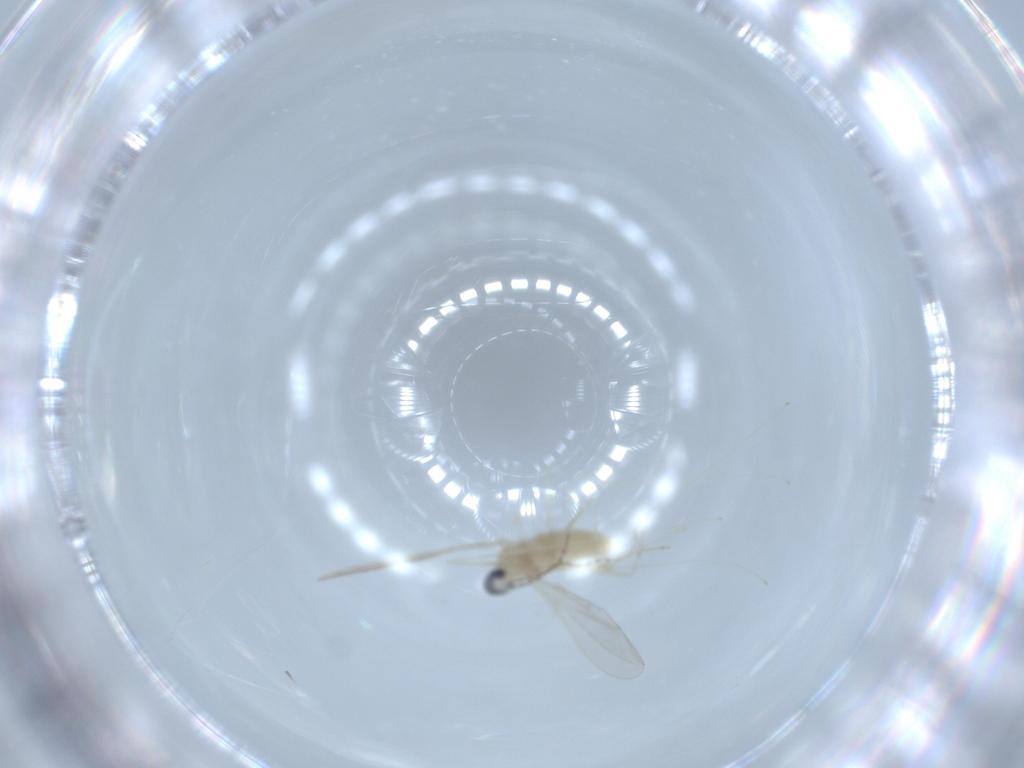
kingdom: Animalia
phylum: Arthropoda
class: Insecta
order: Diptera
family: Cecidomyiidae
